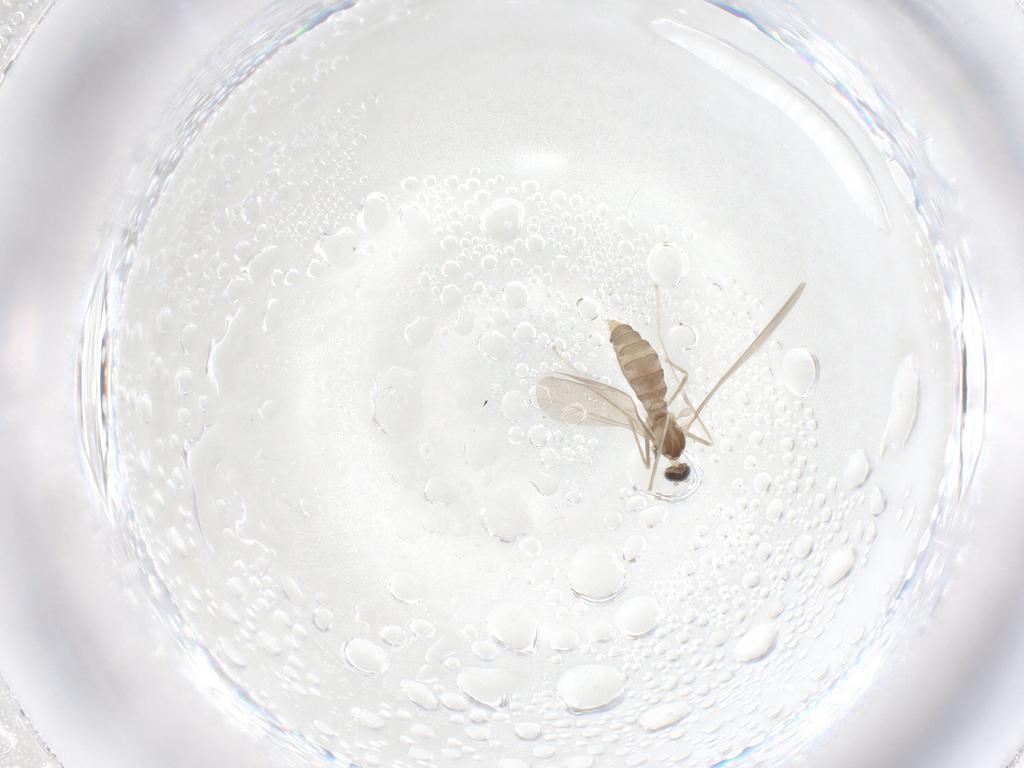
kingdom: Animalia
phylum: Arthropoda
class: Insecta
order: Diptera
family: Cecidomyiidae
